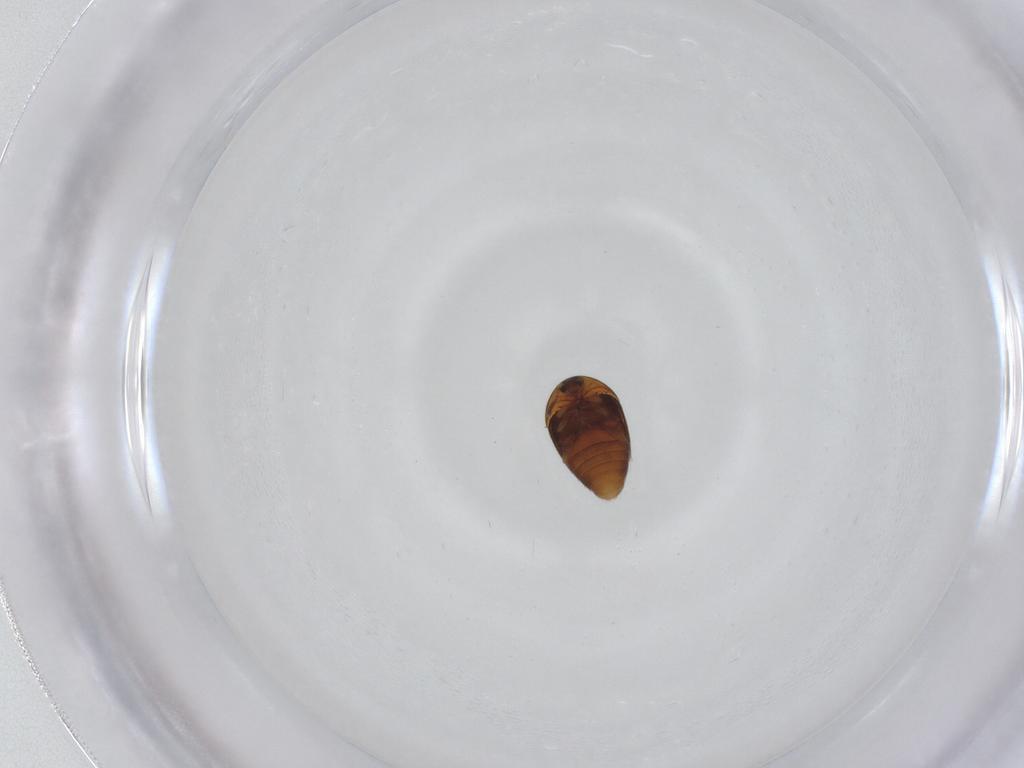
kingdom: Animalia
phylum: Arthropoda
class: Insecta
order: Coleoptera
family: Corylophidae
